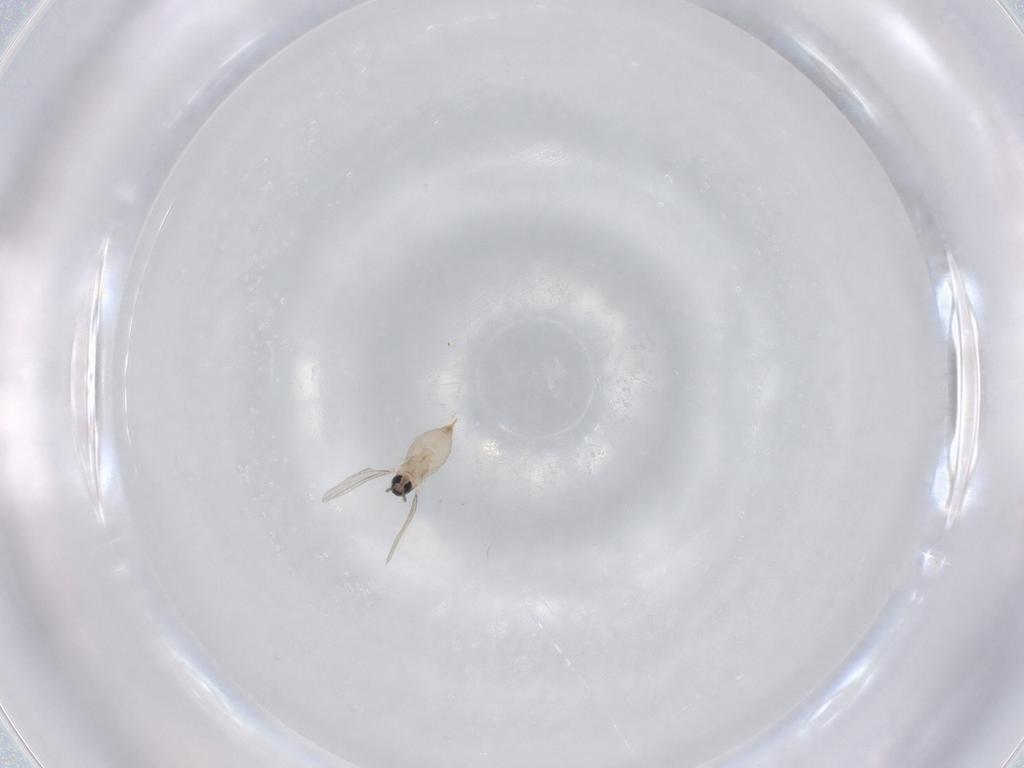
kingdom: Animalia
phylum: Arthropoda
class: Insecta
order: Diptera
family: Cecidomyiidae
